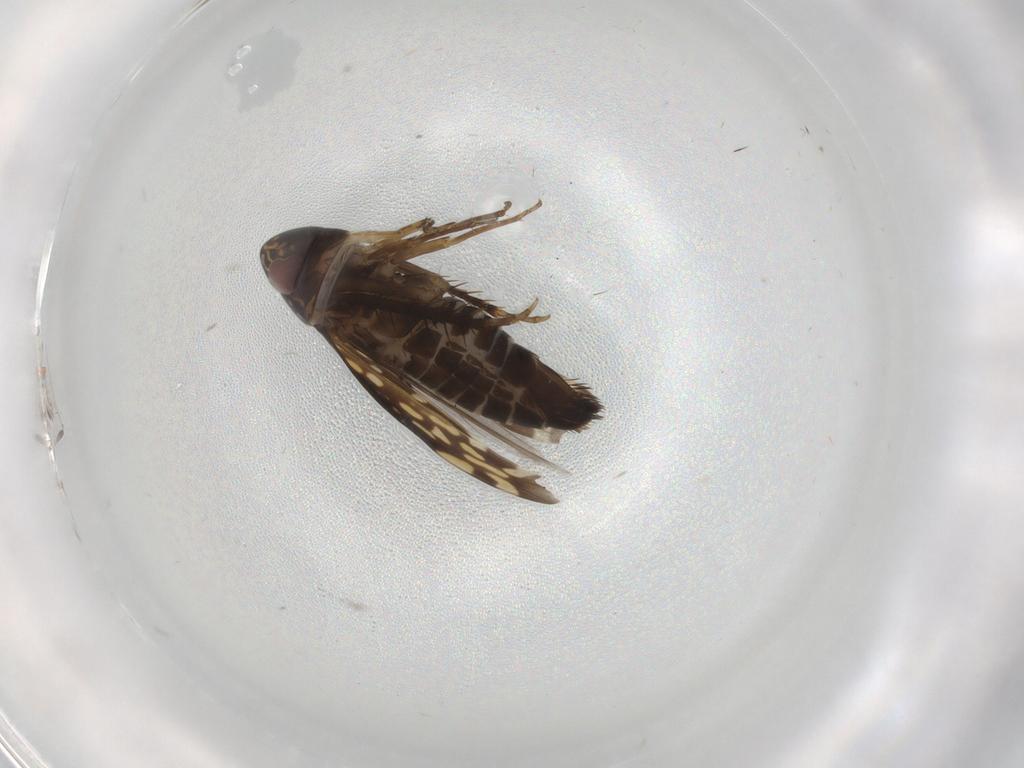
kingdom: Animalia
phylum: Arthropoda
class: Insecta
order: Hemiptera
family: Cicadellidae
